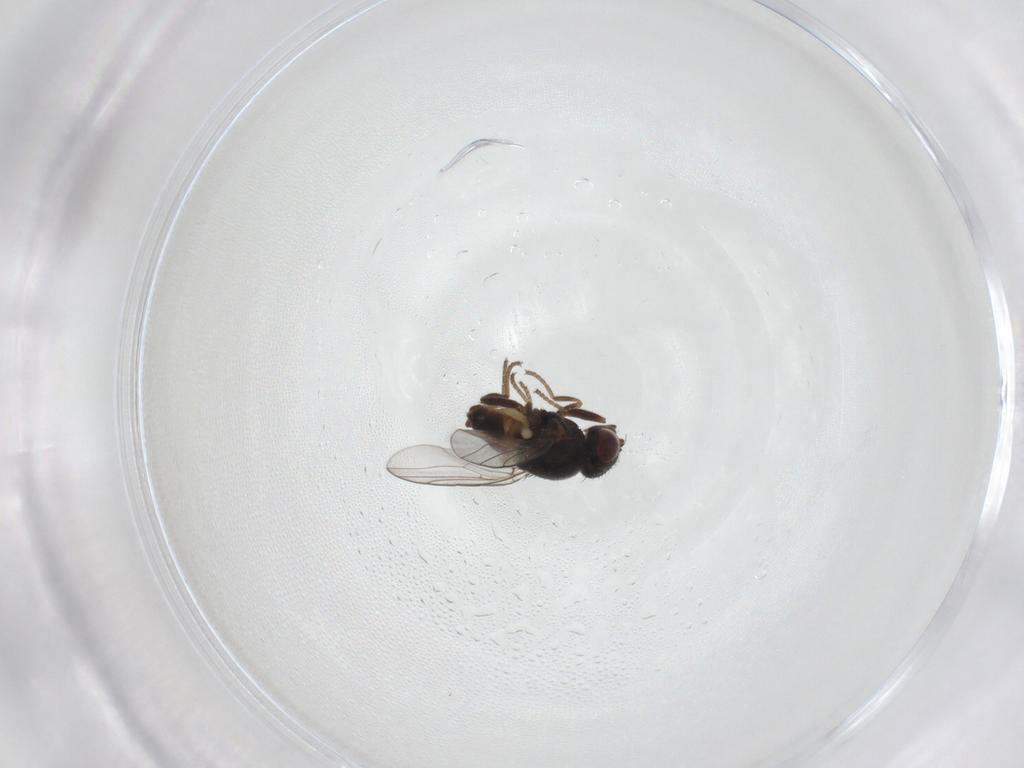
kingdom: Animalia
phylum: Arthropoda
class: Insecta
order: Diptera
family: Chloropidae
